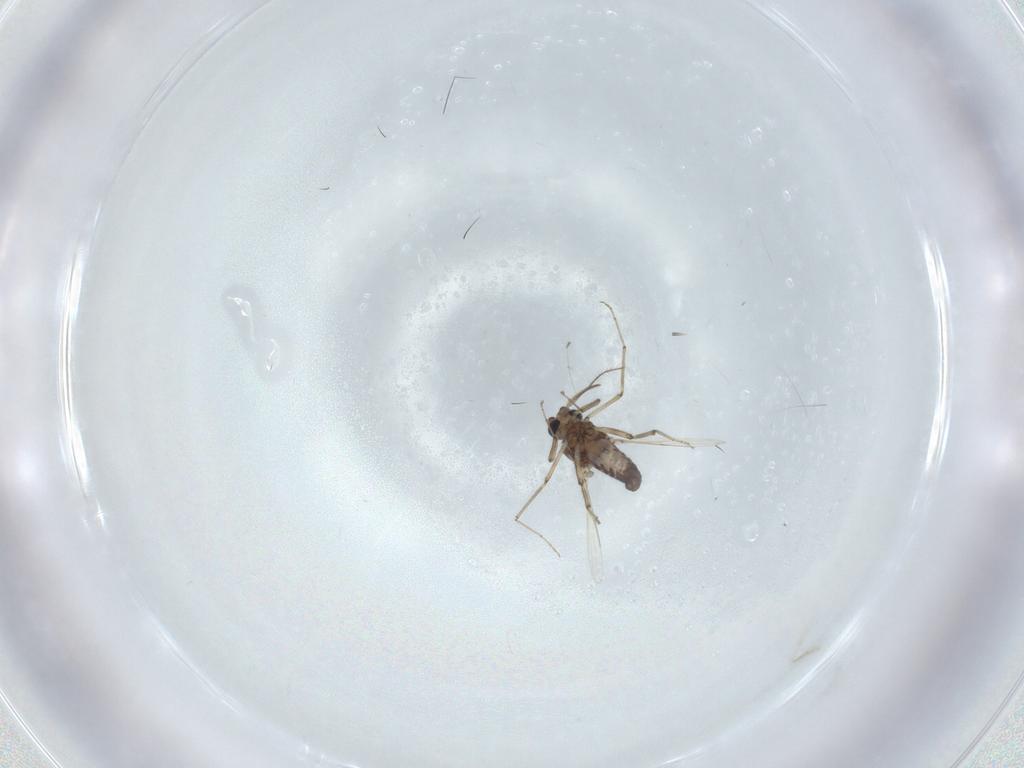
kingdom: Animalia
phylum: Arthropoda
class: Insecta
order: Diptera
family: Ceratopogonidae
